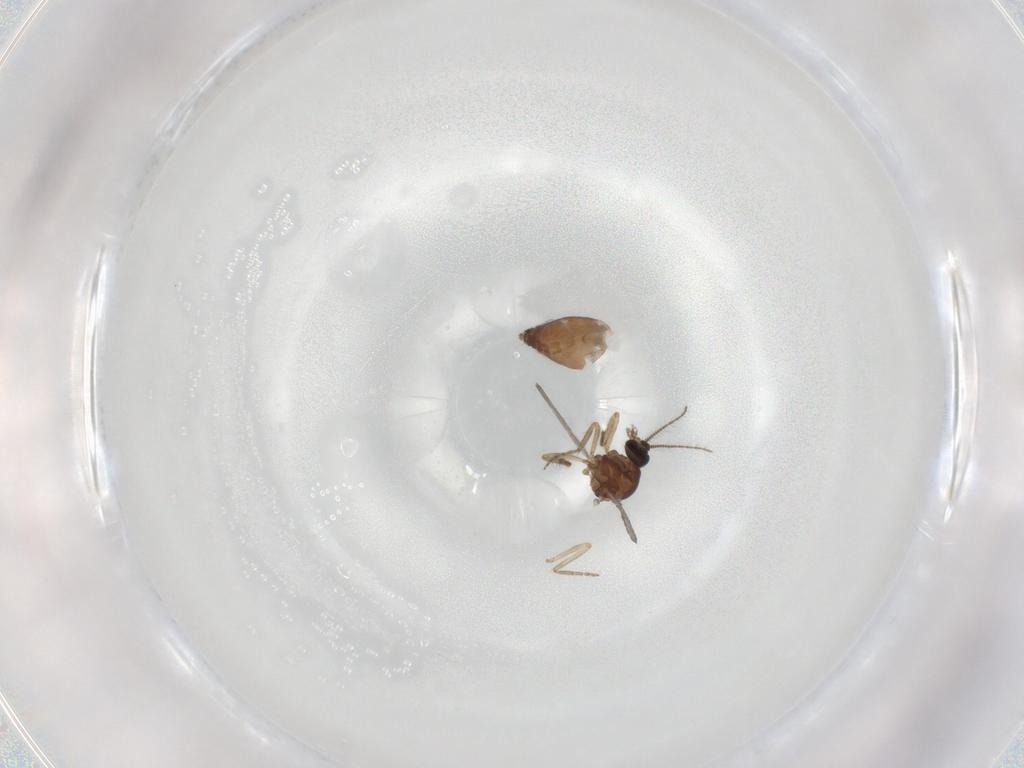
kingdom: Animalia
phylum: Arthropoda
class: Insecta
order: Diptera
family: Ceratopogonidae
